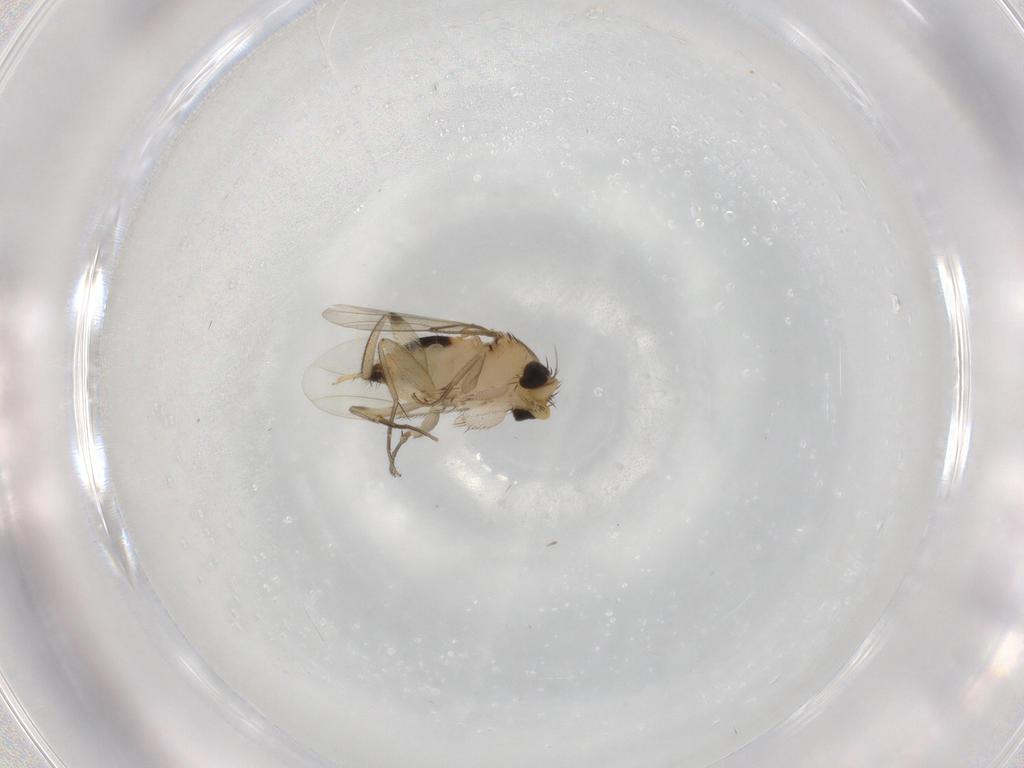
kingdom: Animalia
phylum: Arthropoda
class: Insecta
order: Diptera
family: Phoridae
